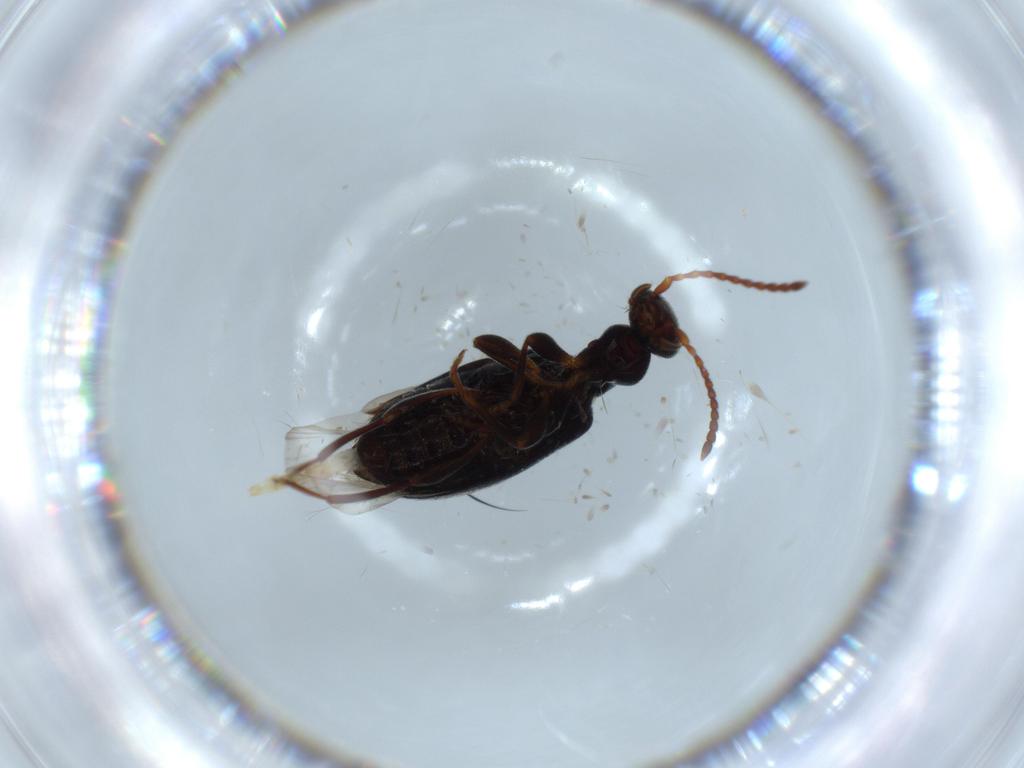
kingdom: Animalia
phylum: Arthropoda
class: Insecta
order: Coleoptera
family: Anthicidae
